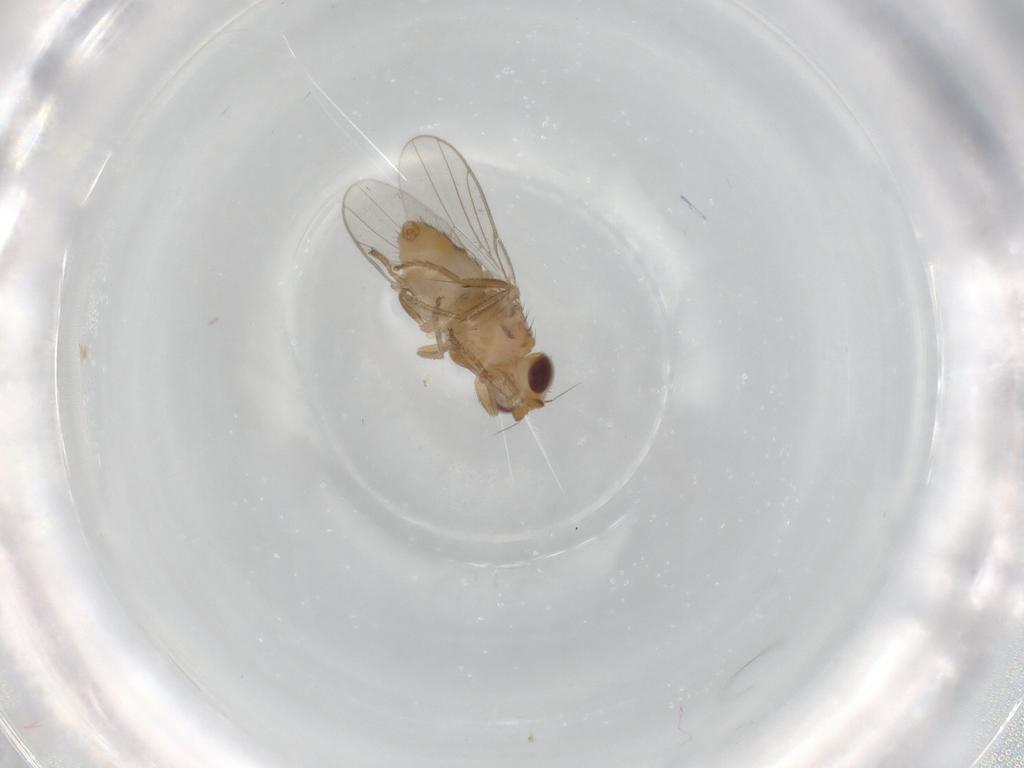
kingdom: Animalia
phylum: Arthropoda
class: Insecta
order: Diptera
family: Chloropidae
